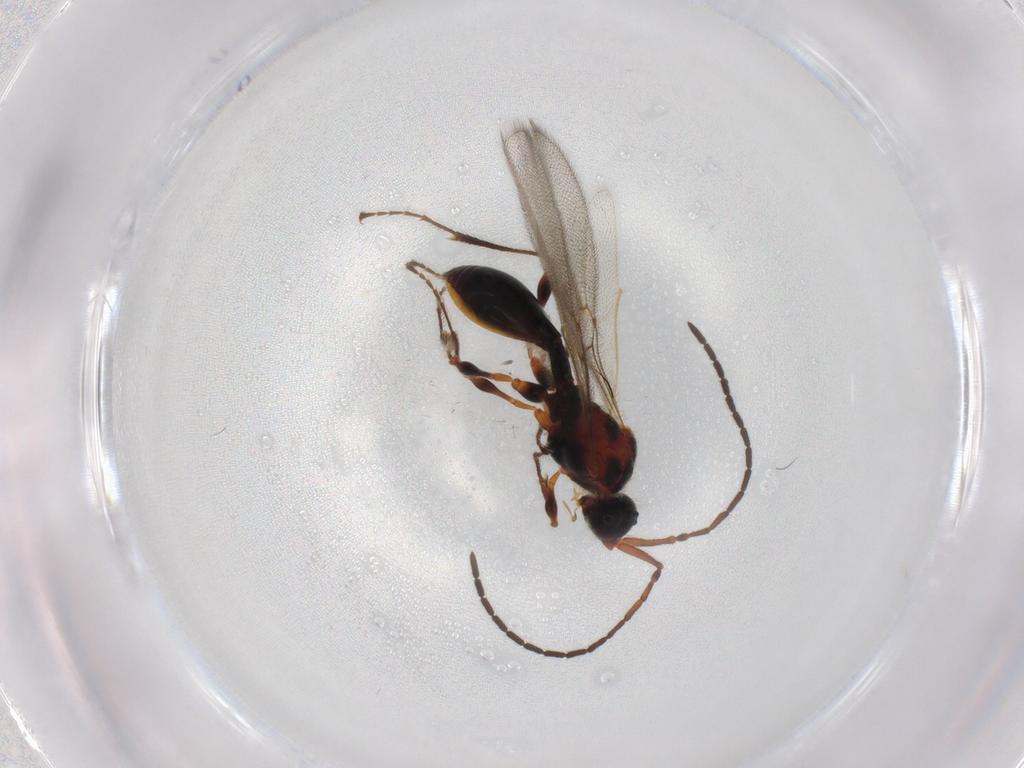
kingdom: Animalia
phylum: Arthropoda
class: Insecta
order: Hymenoptera
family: Diapriidae
